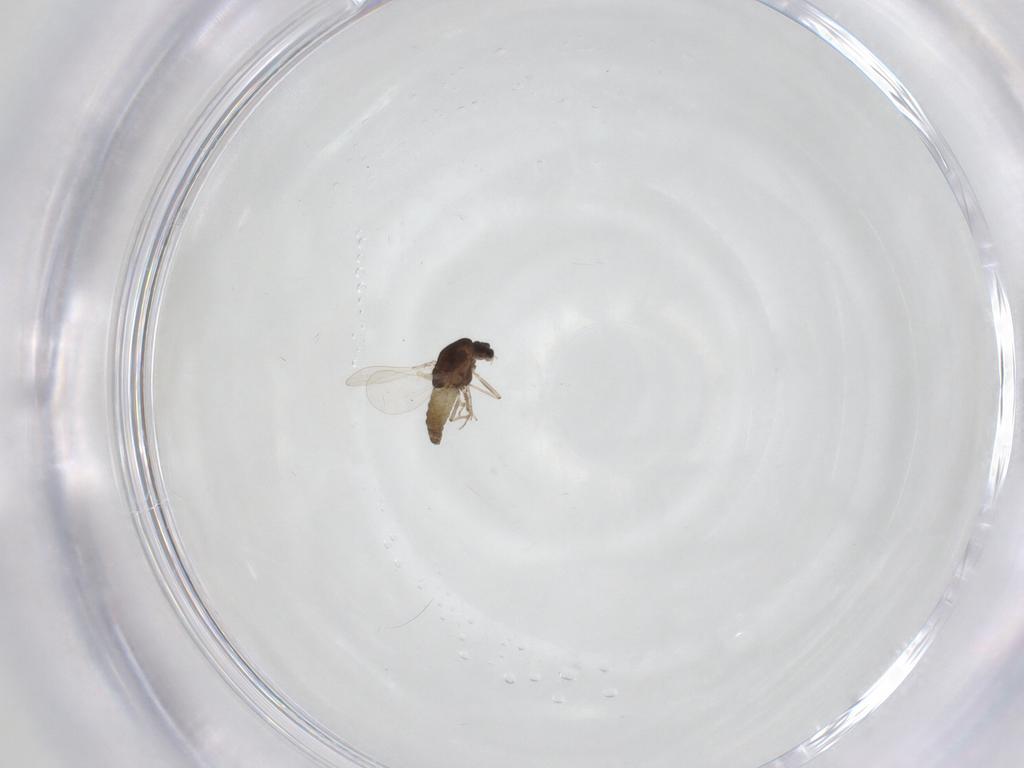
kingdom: Animalia
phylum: Arthropoda
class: Insecta
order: Diptera
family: Chironomidae
